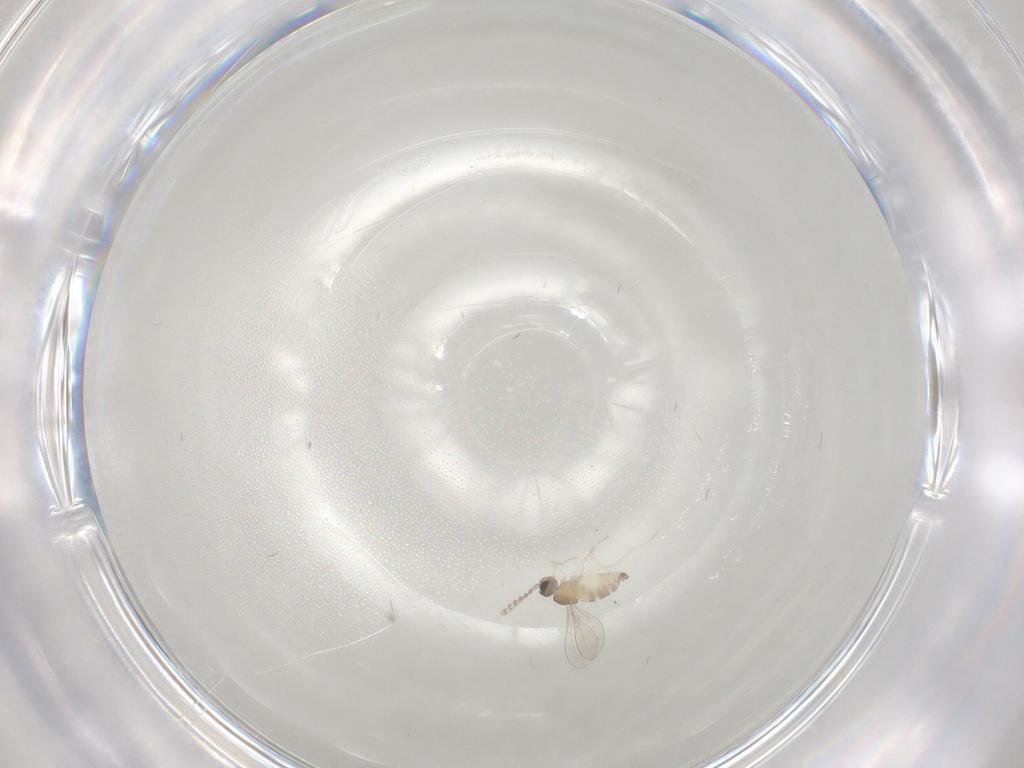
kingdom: Animalia
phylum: Arthropoda
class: Insecta
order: Diptera
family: Cecidomyiidae
